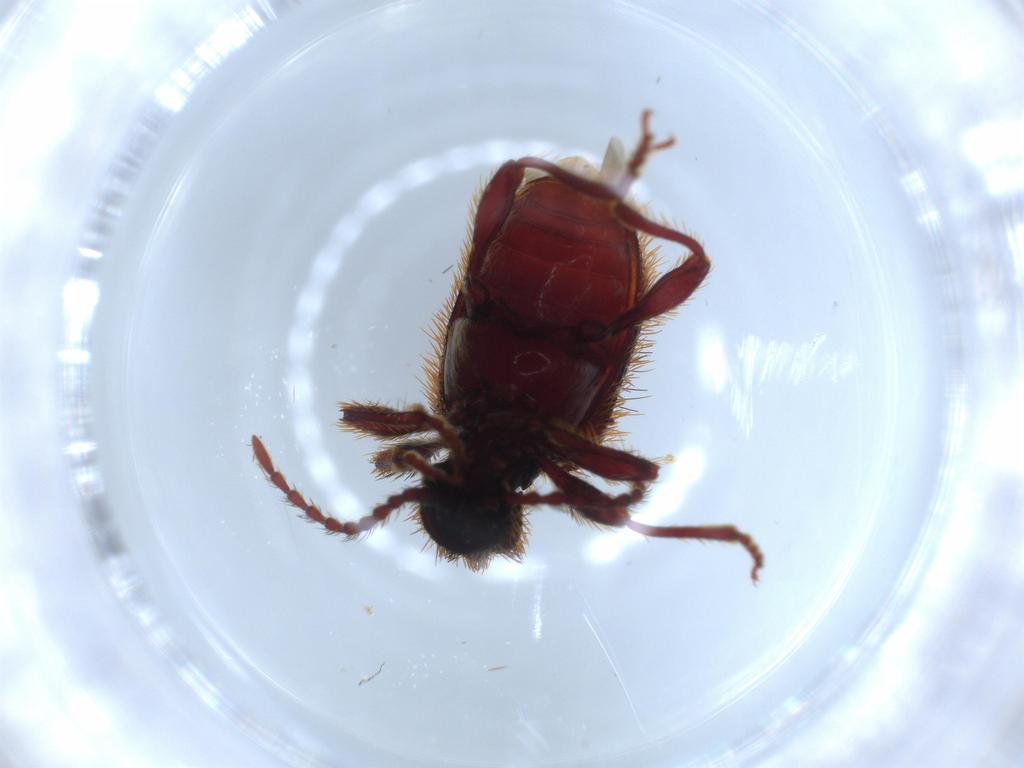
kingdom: Animalia
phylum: Arthropoda
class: Insecta
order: Coleoptera
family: Ptinidae
